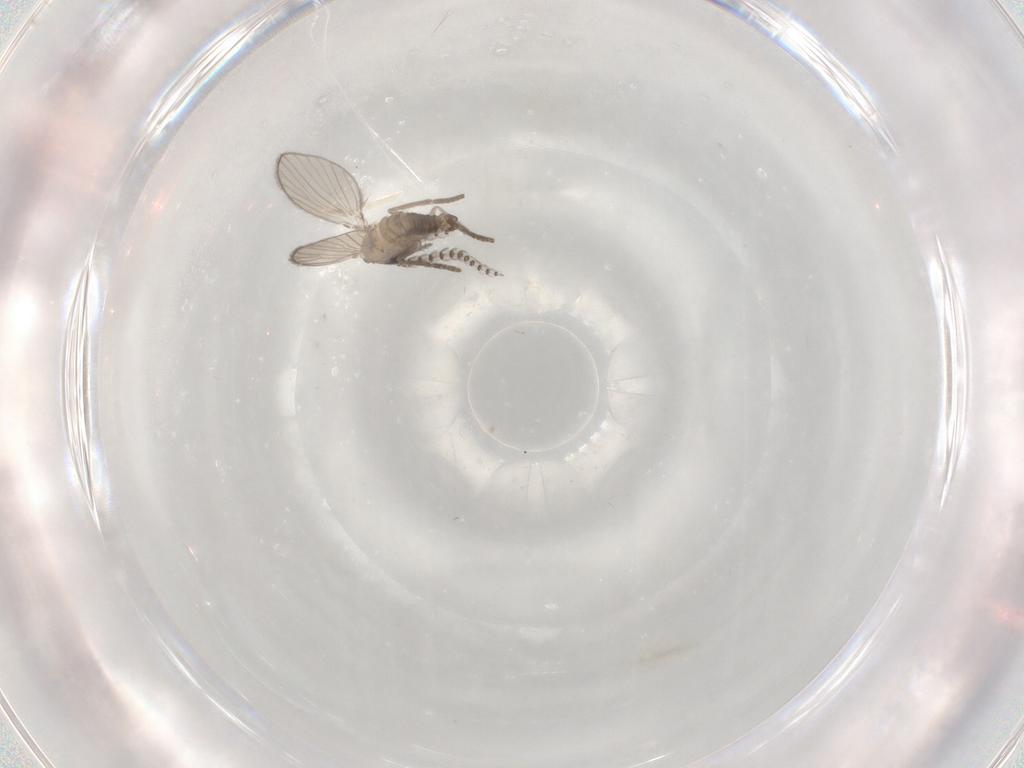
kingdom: Animalia
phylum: Arthropoda
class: Insecta
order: Diptera
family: Psychodidae
